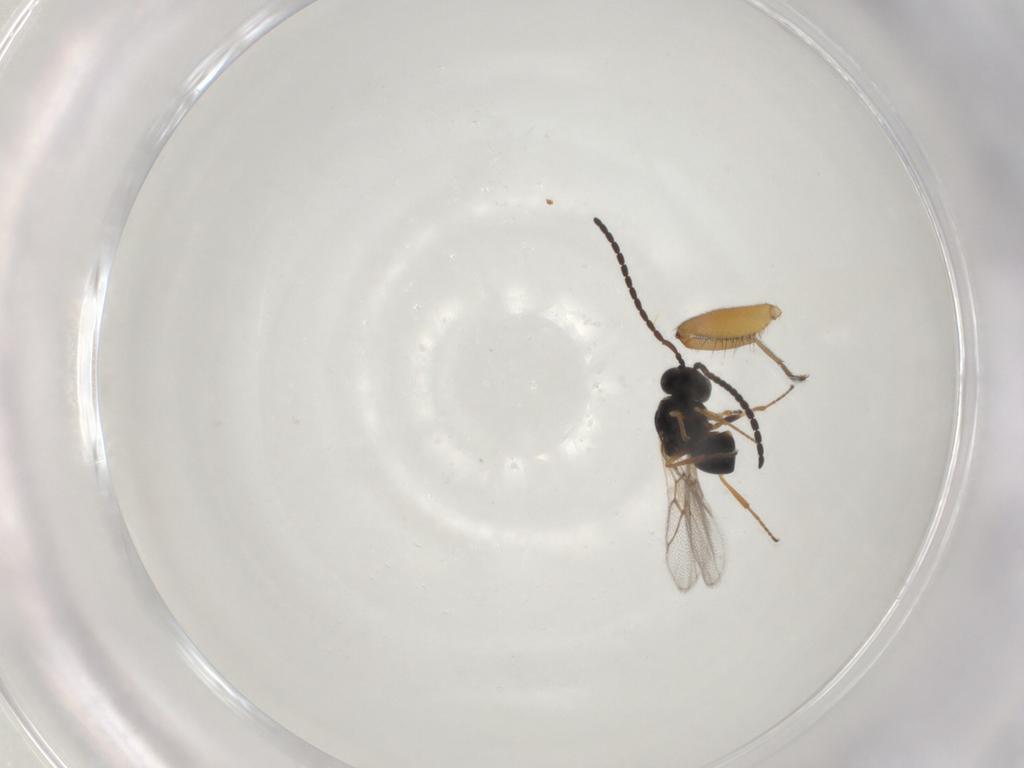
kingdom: Animalia
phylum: Arthropoda
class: Insecta
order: Hymenoptera
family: Figitidae
